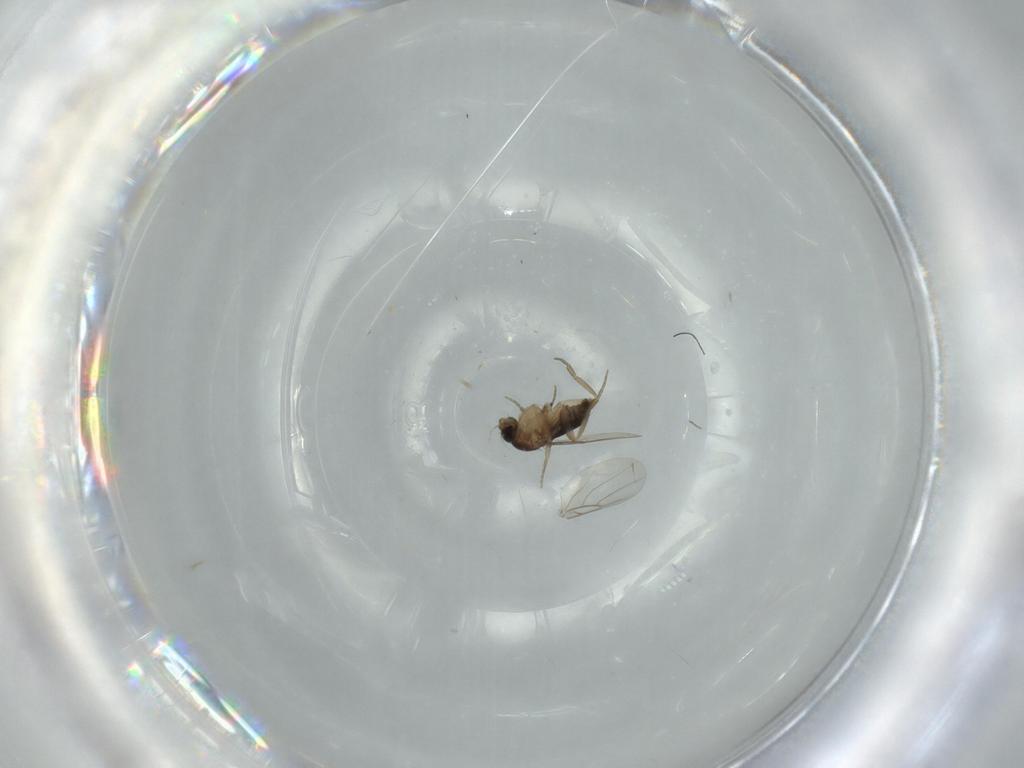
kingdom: Animalia
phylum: Arthropoda
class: Insecta
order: Diptera
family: Phoridae
